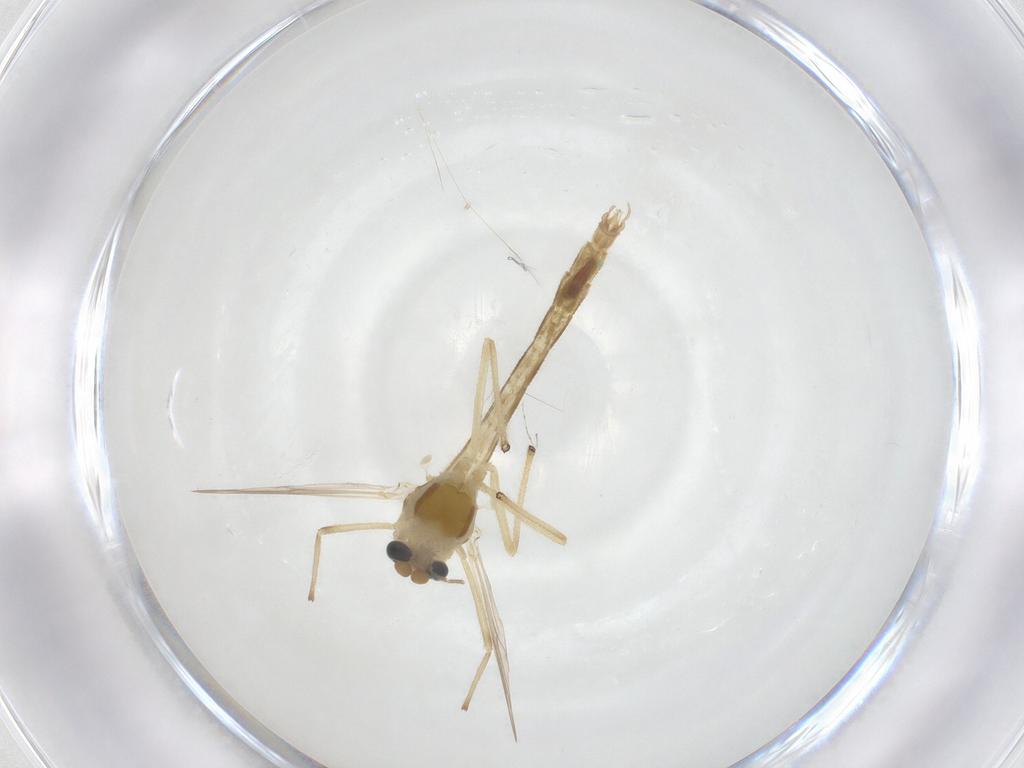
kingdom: Animalia
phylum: Arthropoda
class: Insecta
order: Diptera
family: Chironomidae
